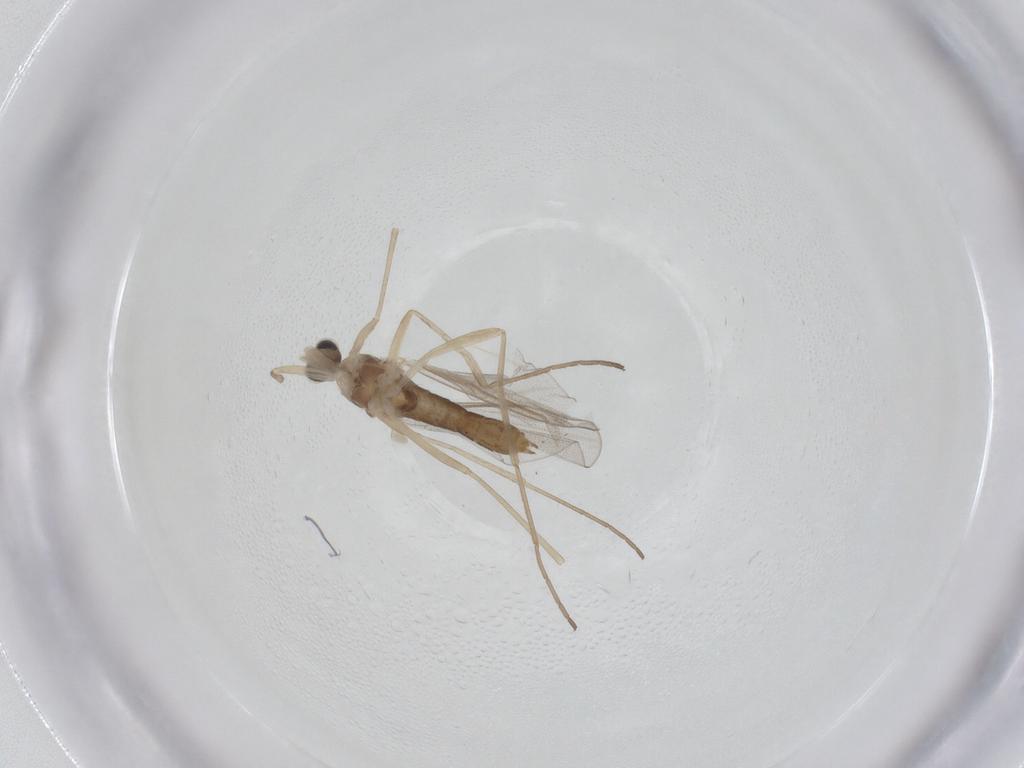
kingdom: Animalia
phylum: Arthropoda
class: Insecta
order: Diptera
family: Cecidomyiidae
